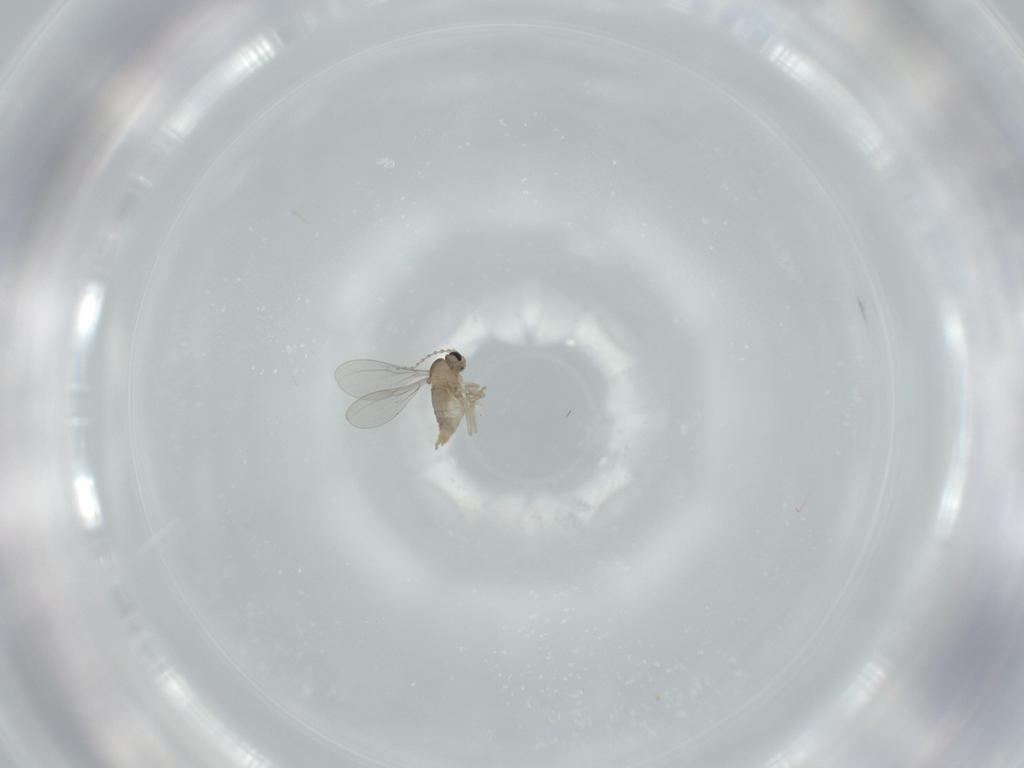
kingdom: Animalia
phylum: Arthropoda
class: Insecta
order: Diptera
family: Cecidomyiidae
